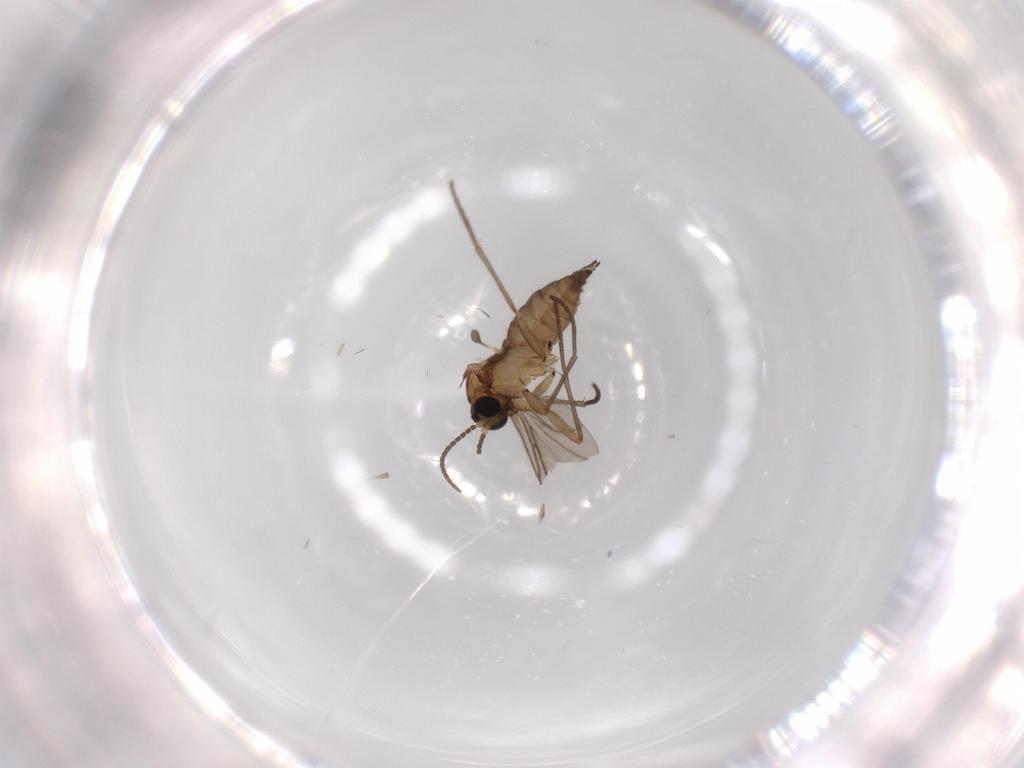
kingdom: Animalia
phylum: Arthropoda
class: Insecta
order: Diptera
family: Sciaridae
